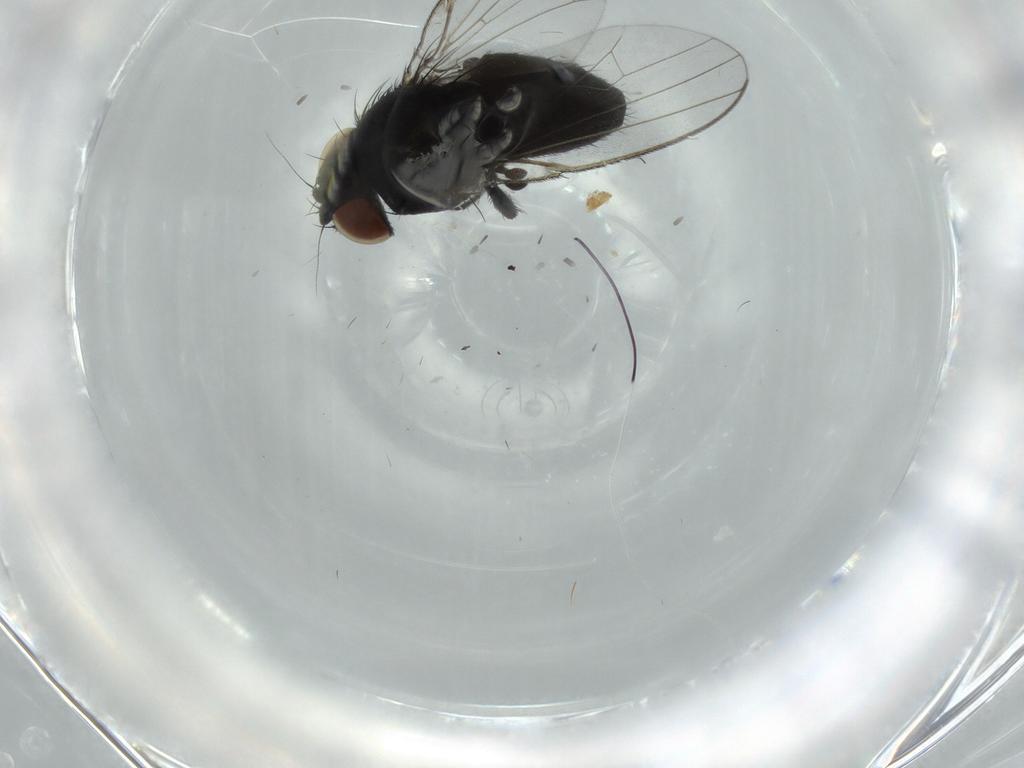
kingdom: Animalia
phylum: Arthropoda
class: Insecta
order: Diptera
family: Milichiidae
